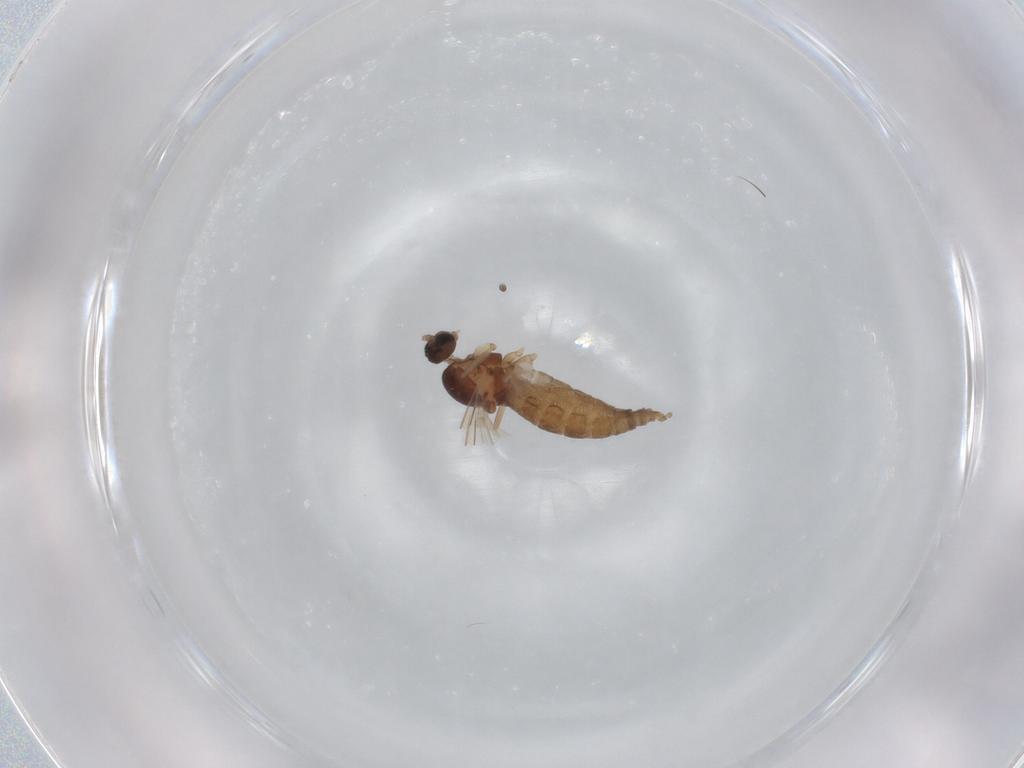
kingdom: Animalia
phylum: Arthropoda
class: Insecta
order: Diptera
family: Cecidomyiidae
